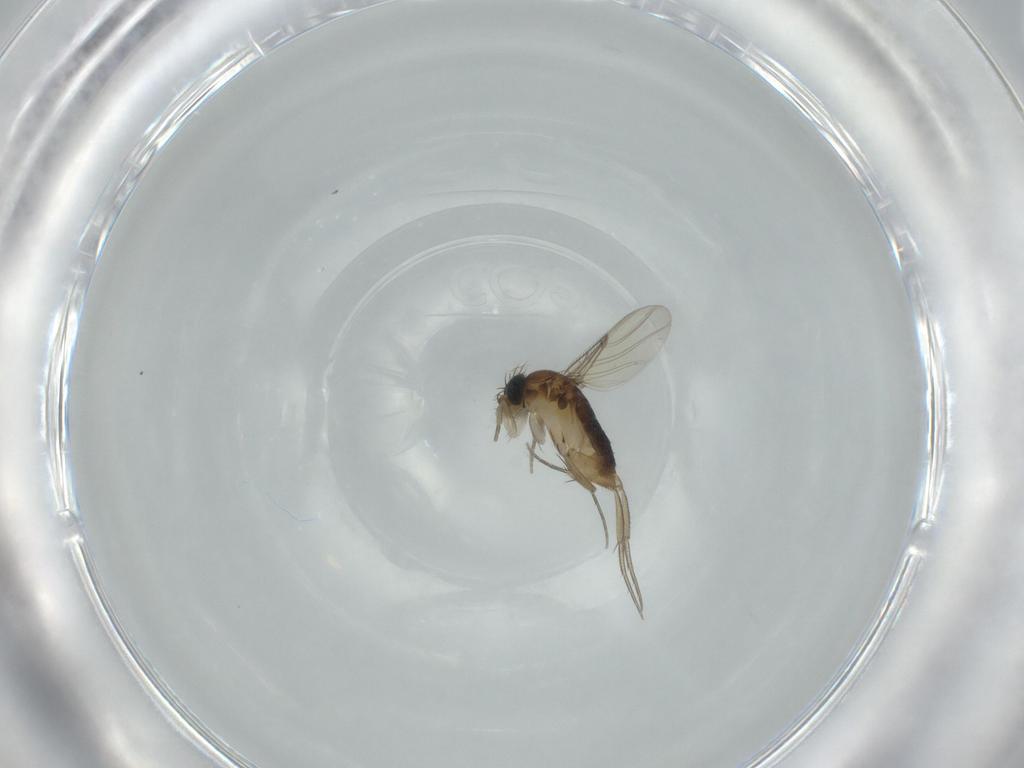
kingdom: Animalia
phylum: Arthropoda
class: Insecta
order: Diptera
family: Phoridae
